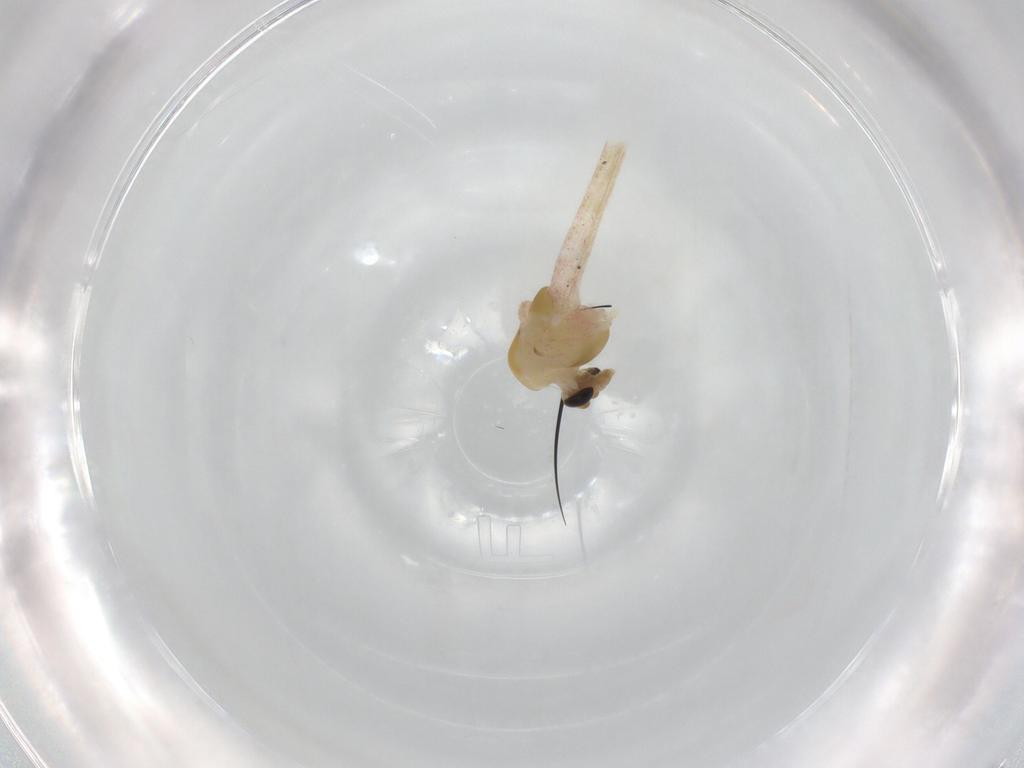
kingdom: Animalia
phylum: Arthropoda
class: Insecta
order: Diptera
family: Chironomidae
